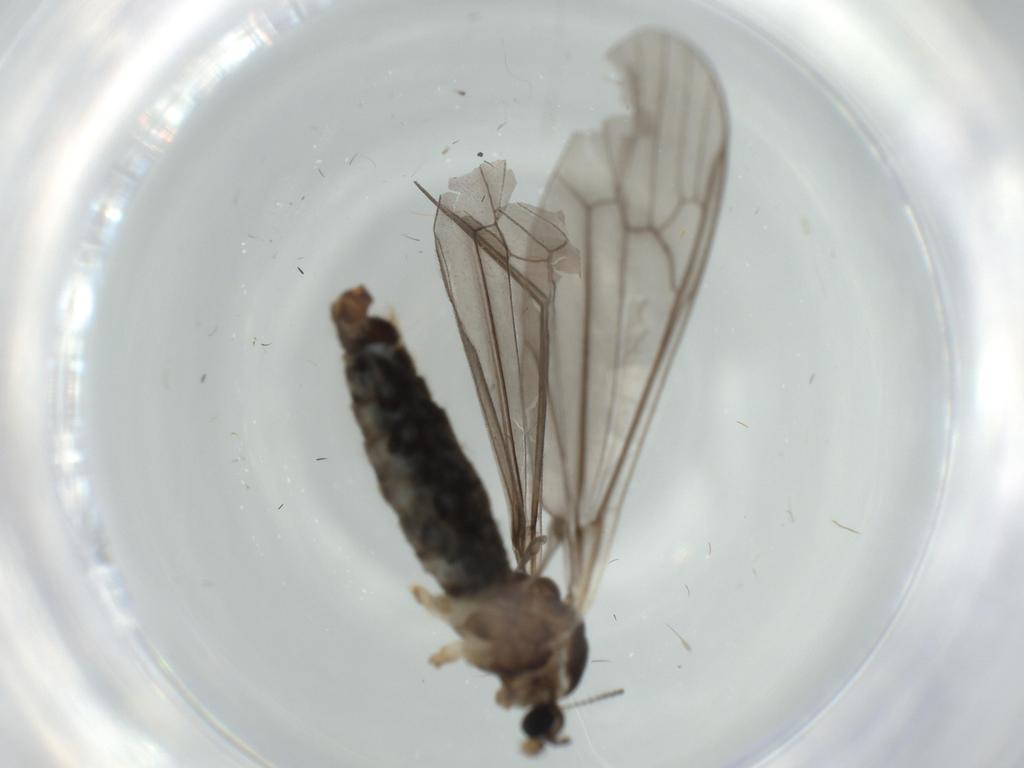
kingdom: Animalia
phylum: Arthropoda
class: Insecta
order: Diptera
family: Limoniidae
